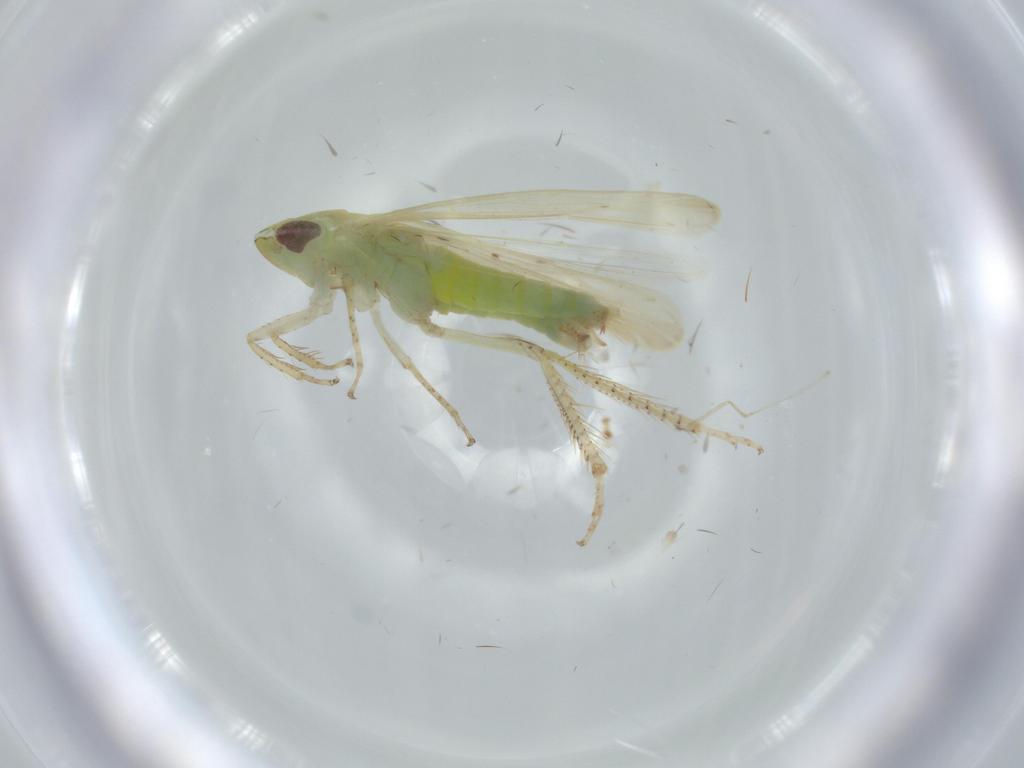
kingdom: Animalia
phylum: Arthropoda
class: Insecta
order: Hemiptera
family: Cicadellidae
